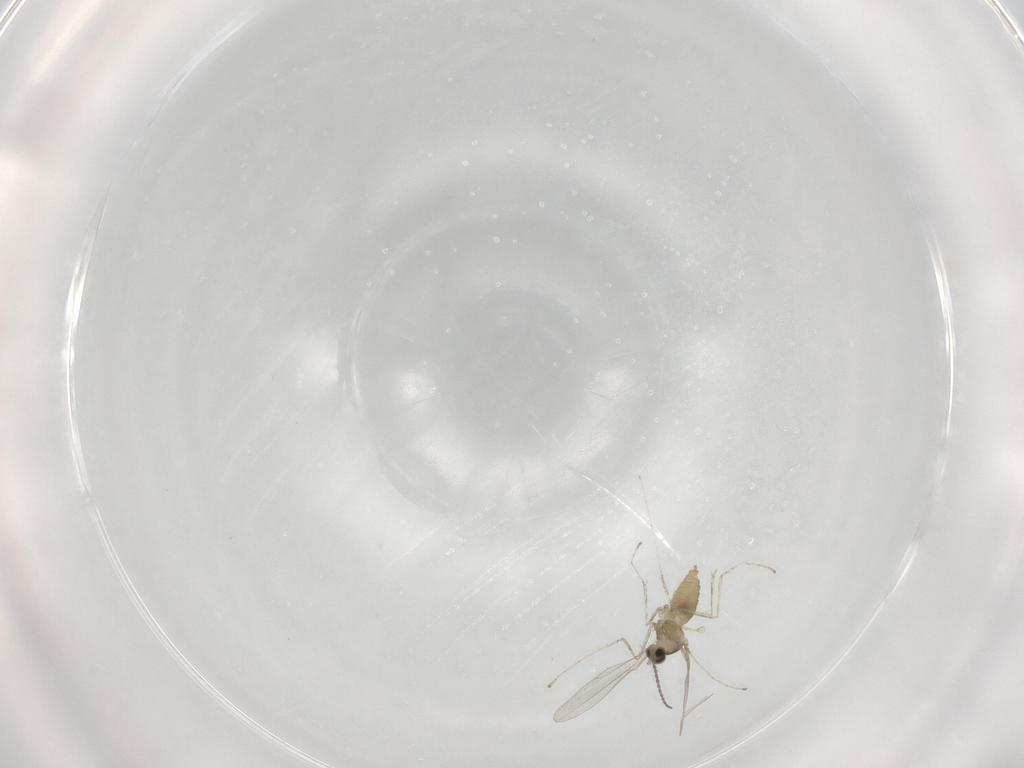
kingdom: Animalia
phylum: Arthropoda
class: Insecta
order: Diptera
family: Cecidomyiidae
